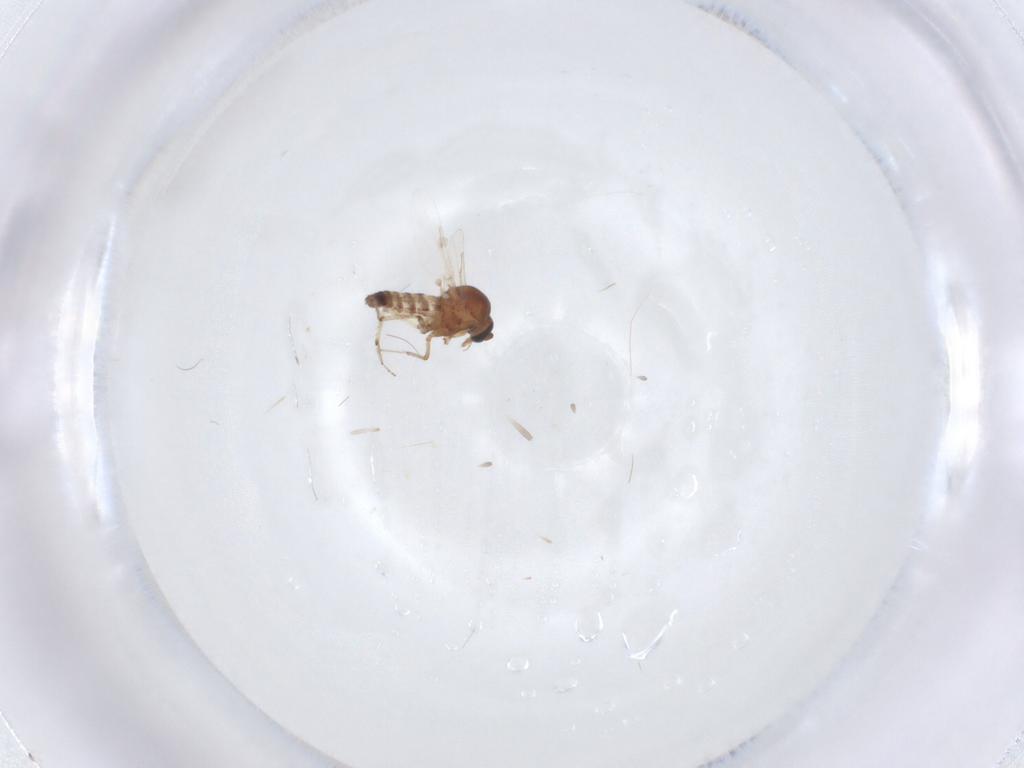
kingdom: Animalia
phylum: Arthropoda
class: Insecta
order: Diptera
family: Ceratopogonidae
